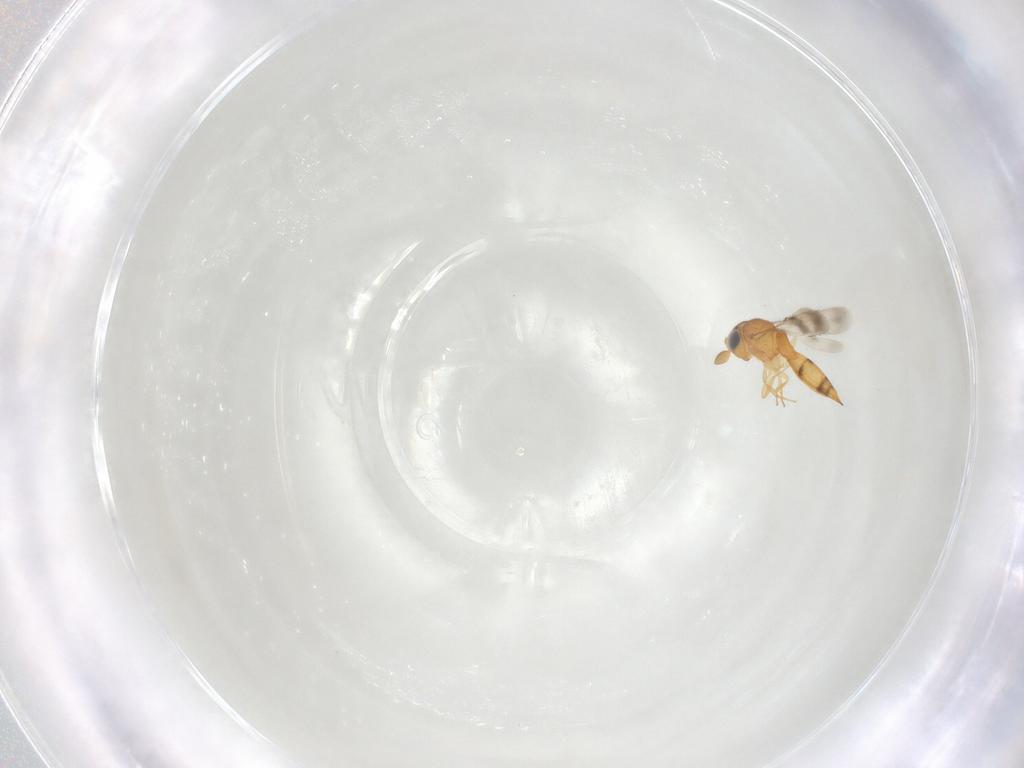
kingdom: Animalia
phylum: Arthropoda
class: Insecta
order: Hymenoptera
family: Scelionidae
